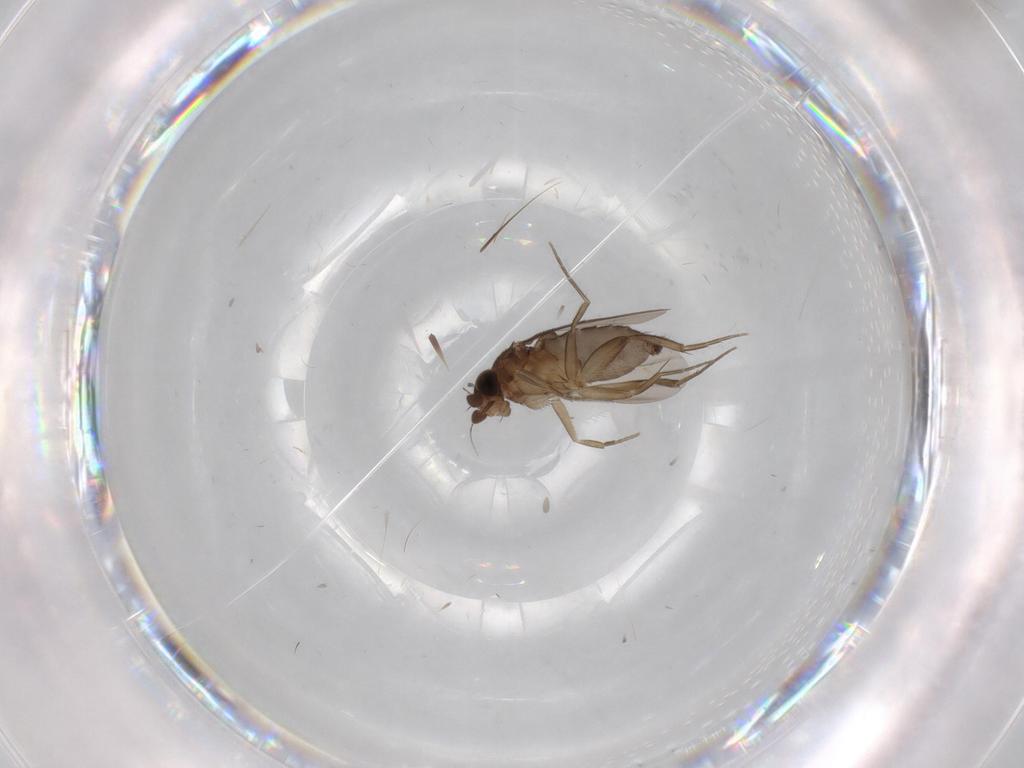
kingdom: Animalia
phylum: Arthropoda
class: Insecta
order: Diptera
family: Phoridae
